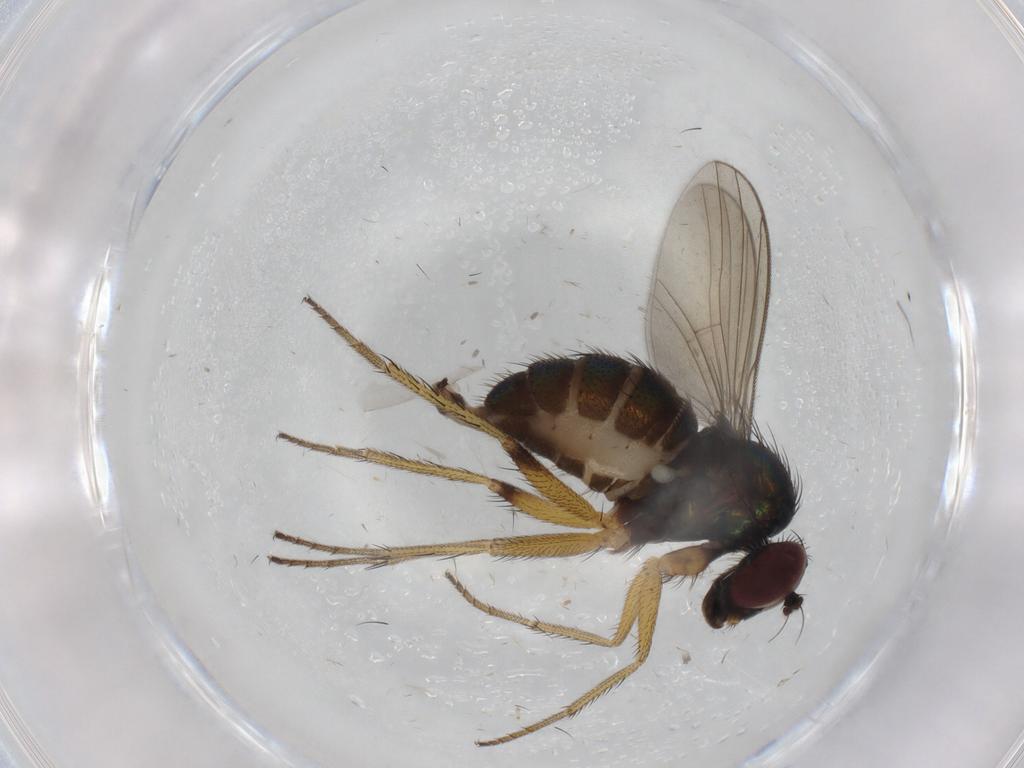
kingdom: Animalia
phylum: Arthropoda
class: Insecta
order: Diptera
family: Dolichopodidae
